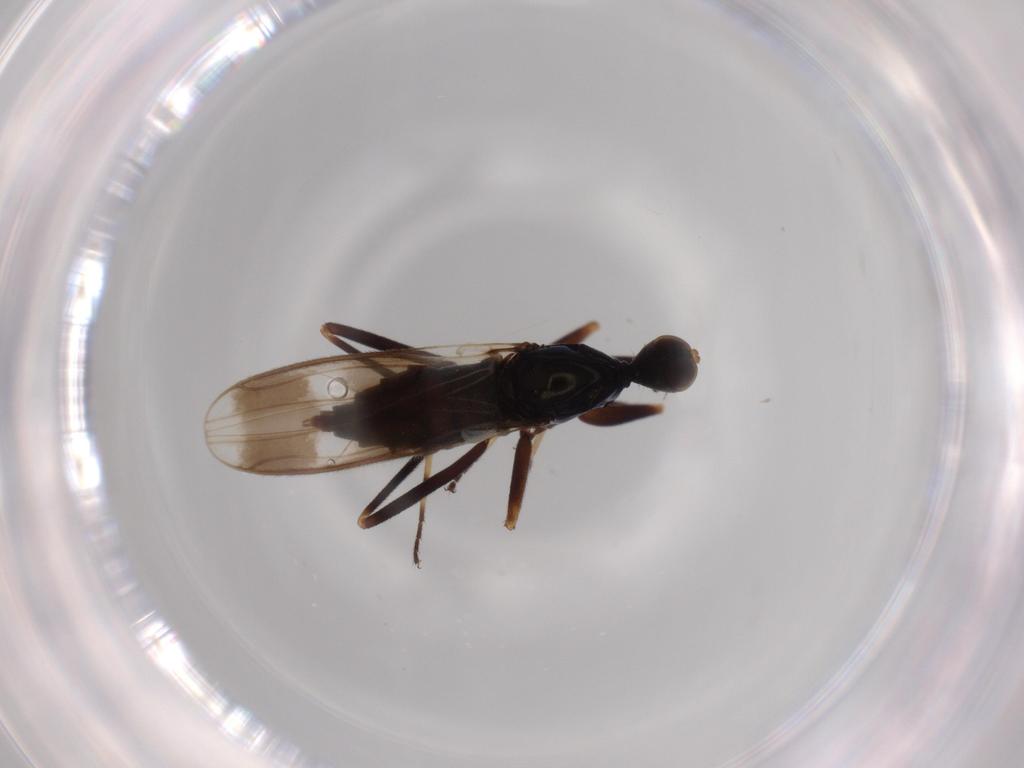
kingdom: Animalia
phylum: Arthropoda
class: Insecta
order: Diptera
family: Hybotidae
